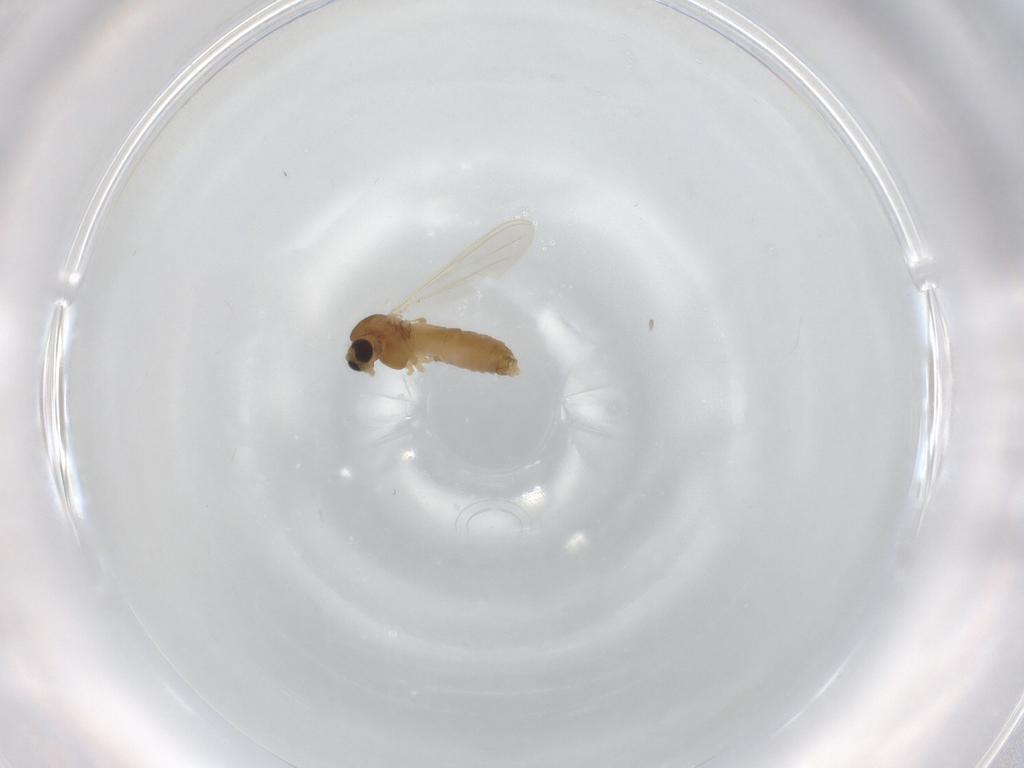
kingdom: Animalia
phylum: Arthropoda
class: Insecta
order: Diptera
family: Chironomidae
